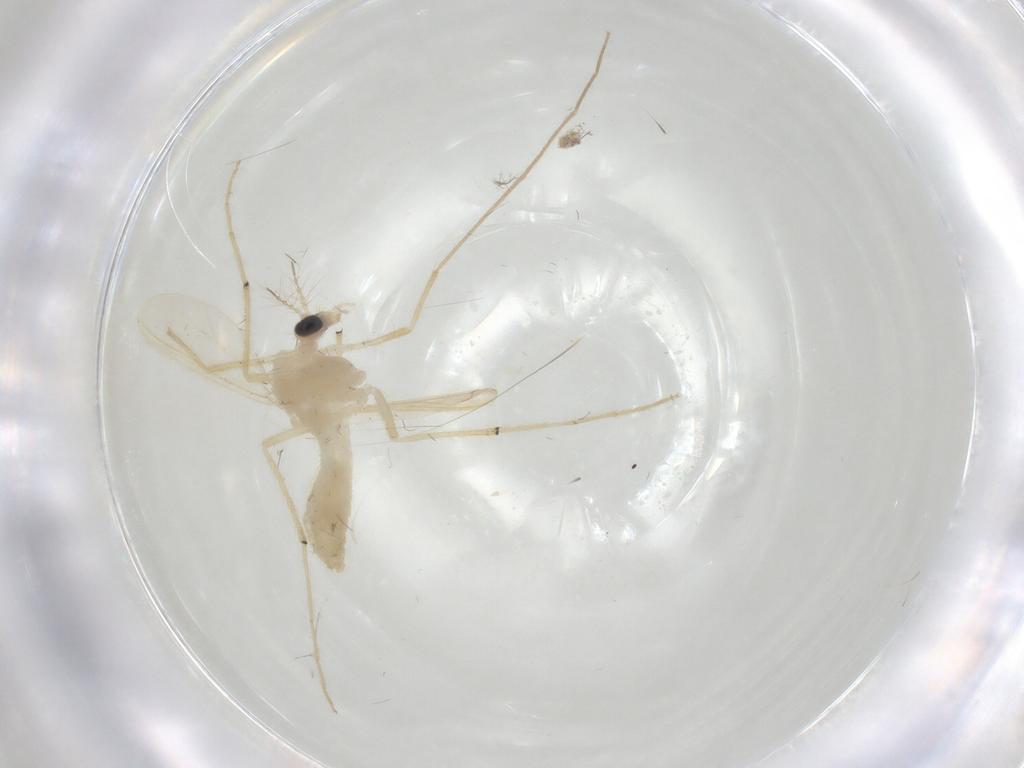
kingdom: Animalia
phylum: Arthropoda
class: Insecta
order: Diptera
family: Chironomidae
